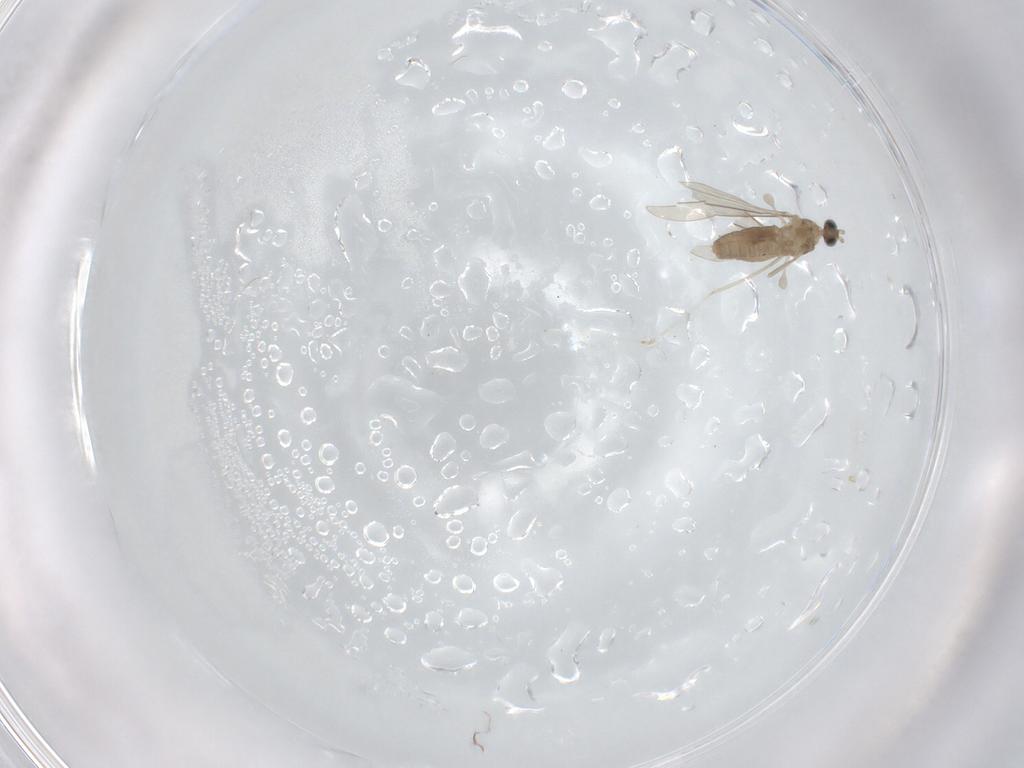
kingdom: Animalia
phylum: Arthropoda
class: Insecta
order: Diptera
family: Cecidomyiidae
